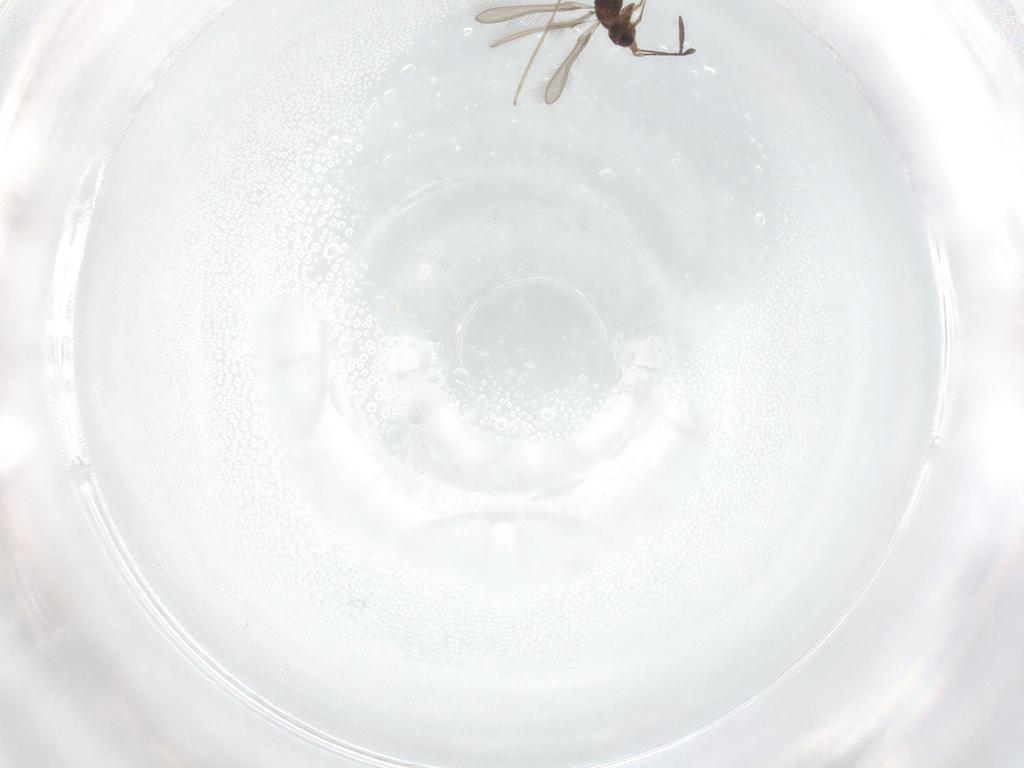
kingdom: Animalia
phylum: Arthropoda
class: Insecta
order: Hymenoptera
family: Mymaridae
